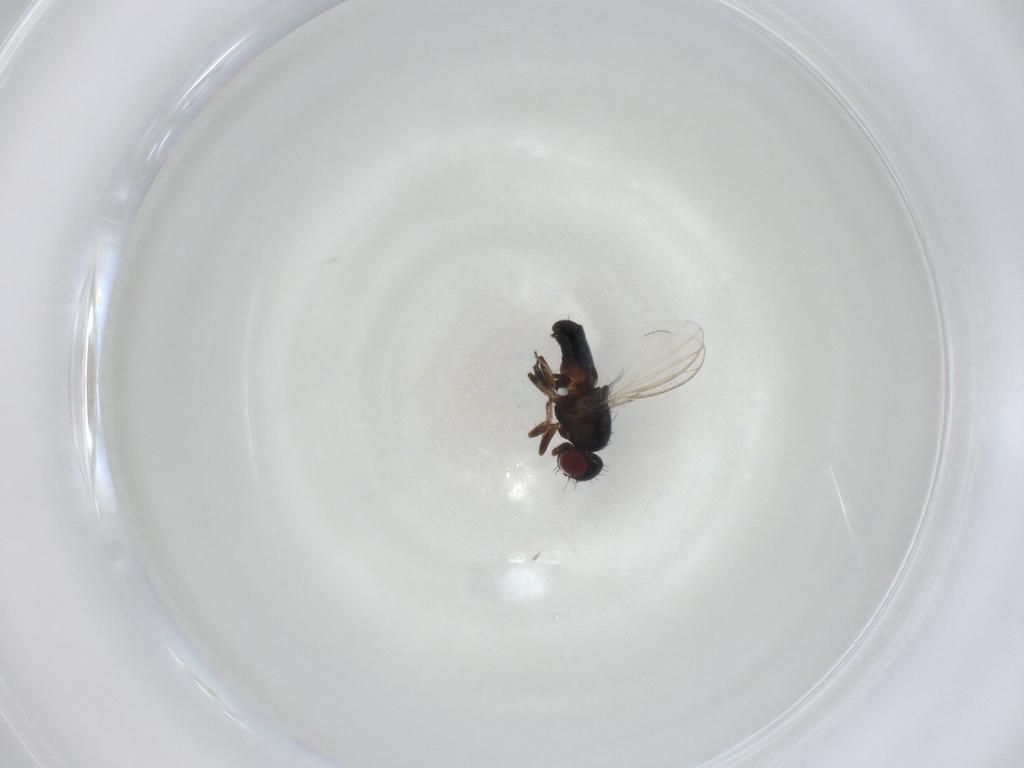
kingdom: Animalia
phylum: Arthropoda
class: Insecta
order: Diptera
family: Carnidae
